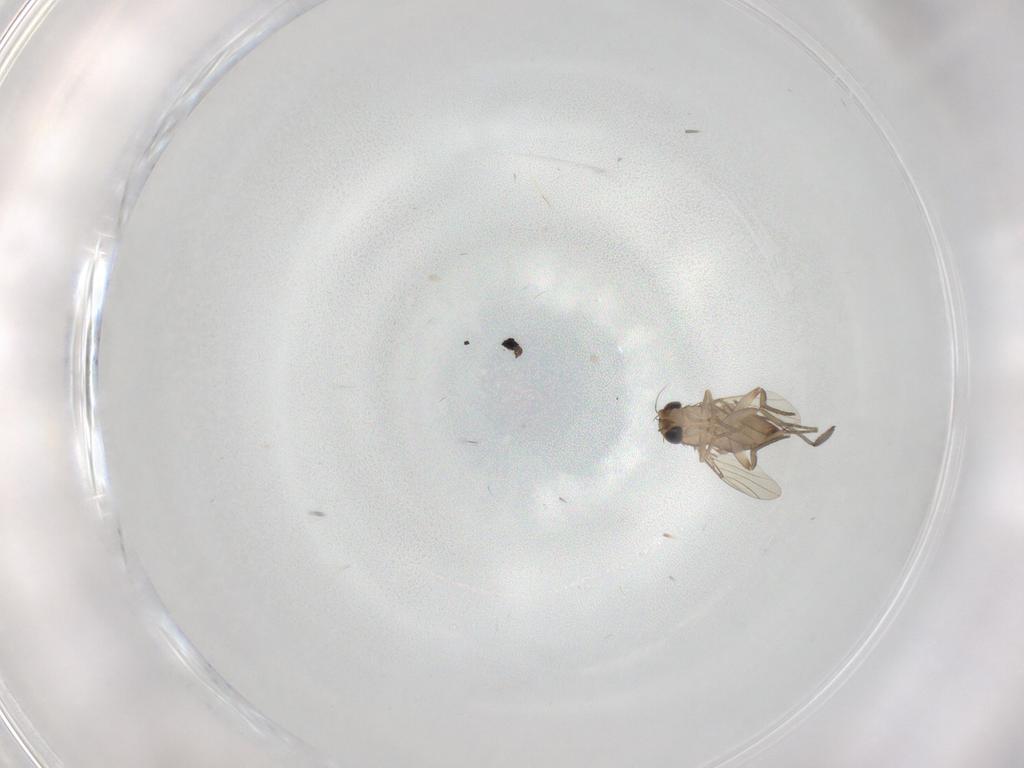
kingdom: Animalia
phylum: Arthropoda
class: Insecta
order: Diptera
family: Phoridae
